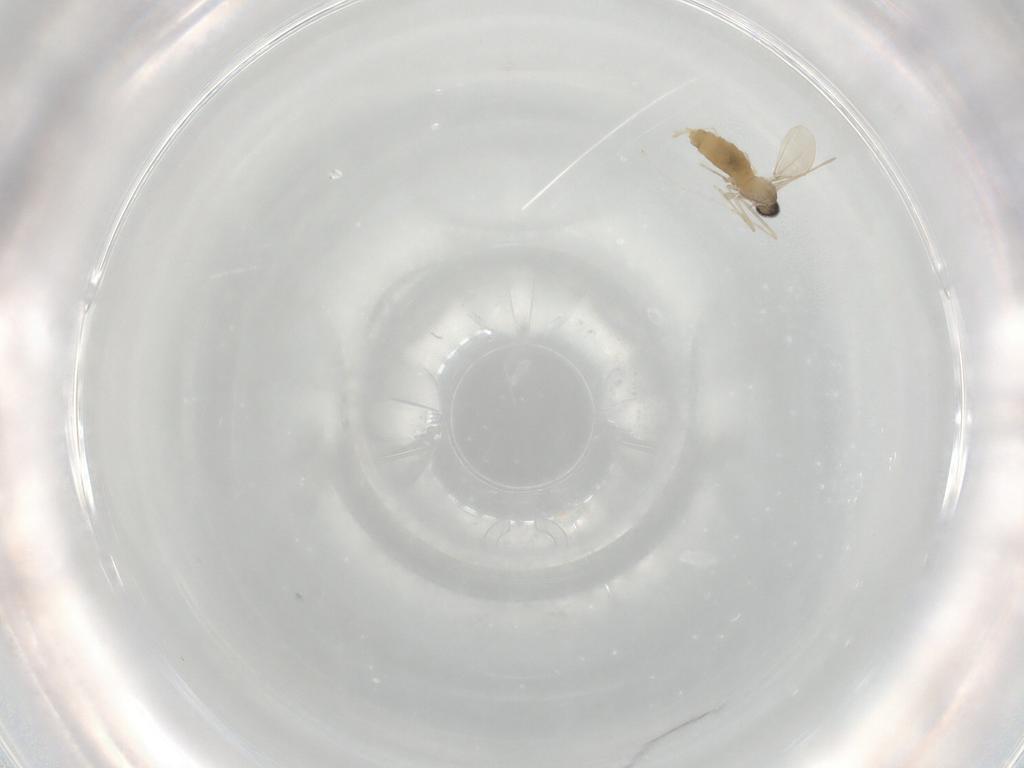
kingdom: Animalia
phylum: Arthropoda
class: Insecta
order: Diptera
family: Cecidomyiidae
